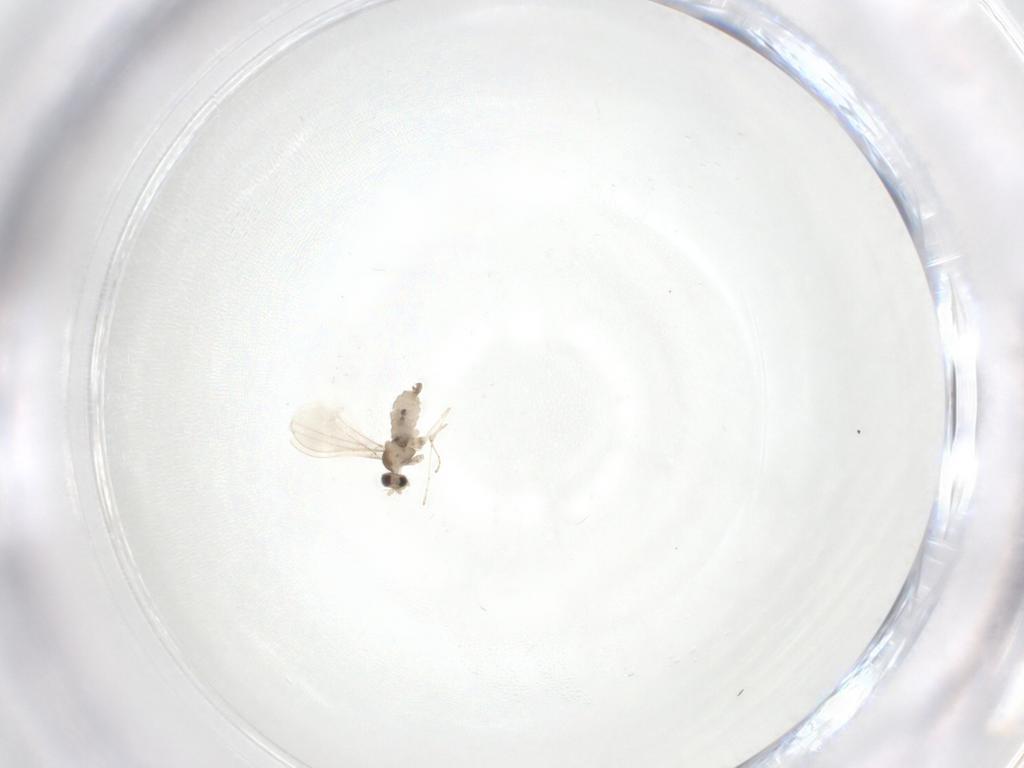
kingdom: Animalia
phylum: Arthropoda
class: Insecta
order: Diptera
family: Cecidomyiidae
